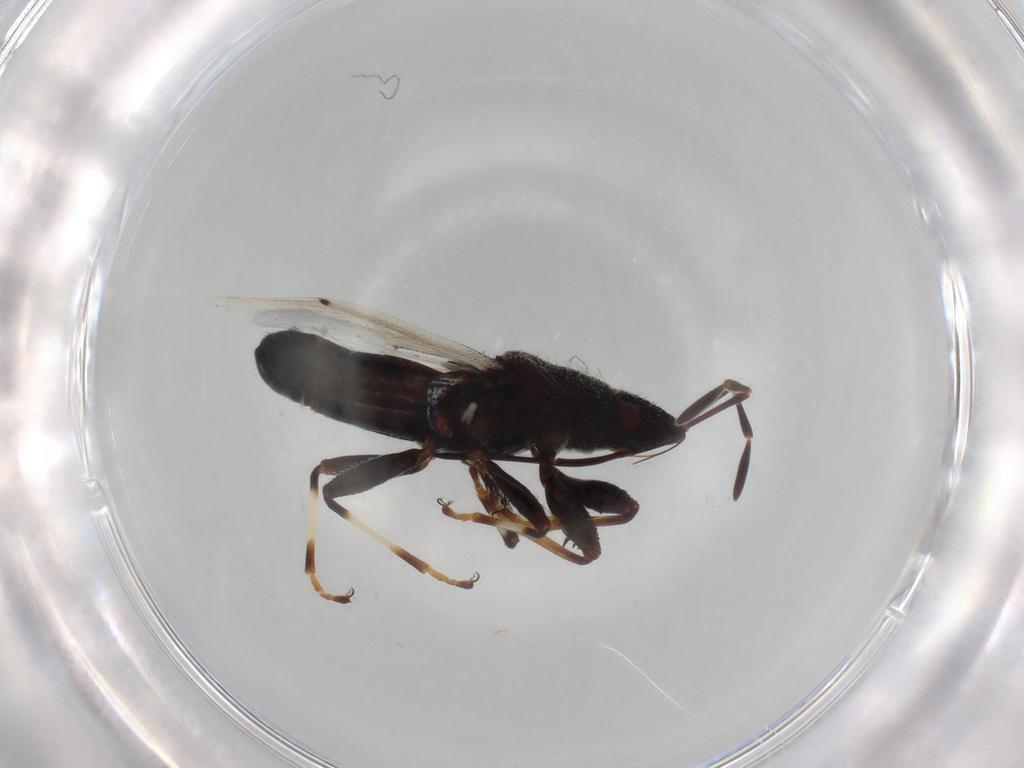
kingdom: Animalia
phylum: Arthropoda
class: Insecta
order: Hemiptera
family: Oxycarenidae
